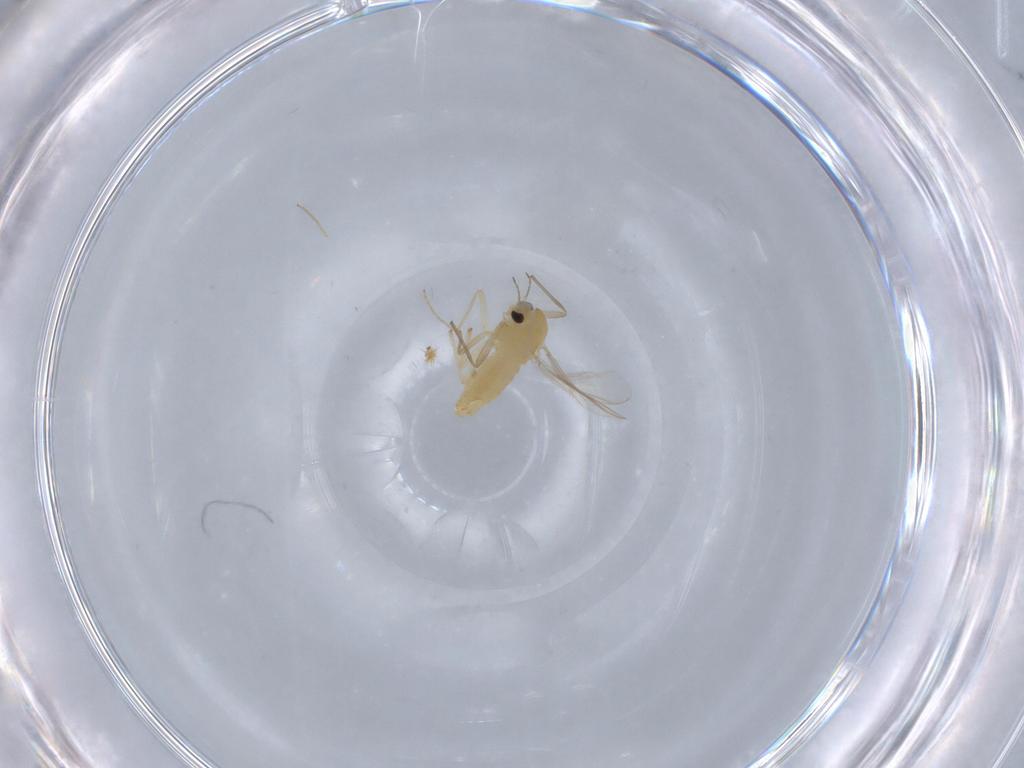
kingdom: Animalia
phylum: Arthropoda
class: Insecta
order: Diptera
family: Chironomidae
